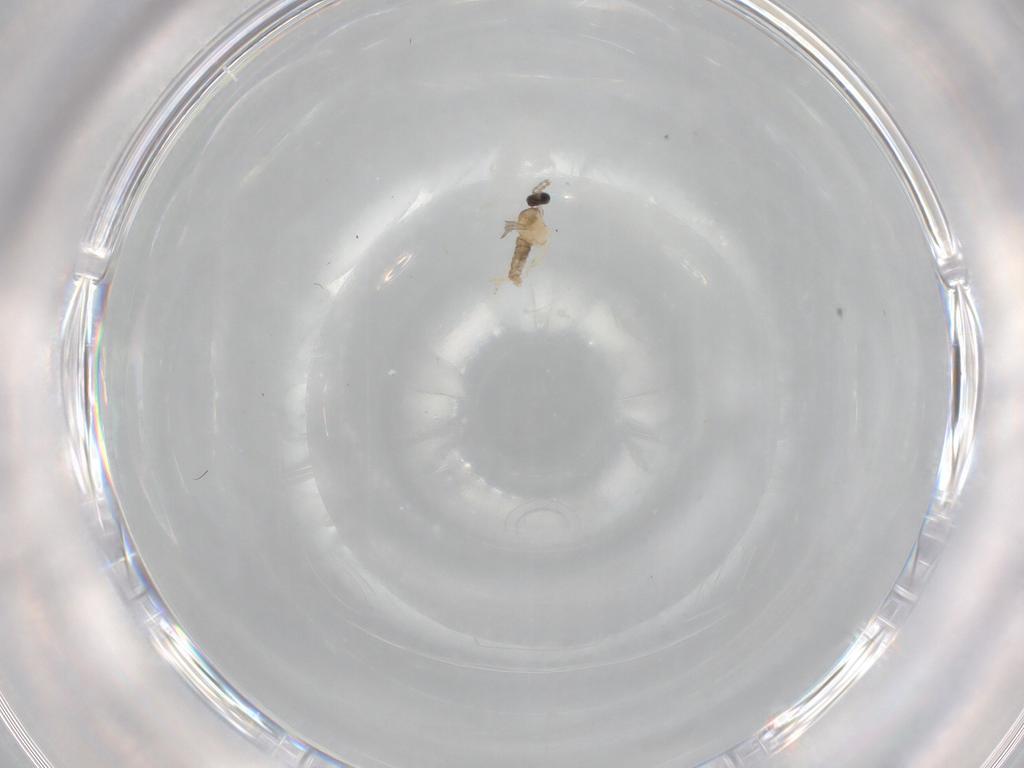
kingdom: Animalia
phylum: Arthropoda
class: Insecta
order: Diptera
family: Cecidomyiidae
